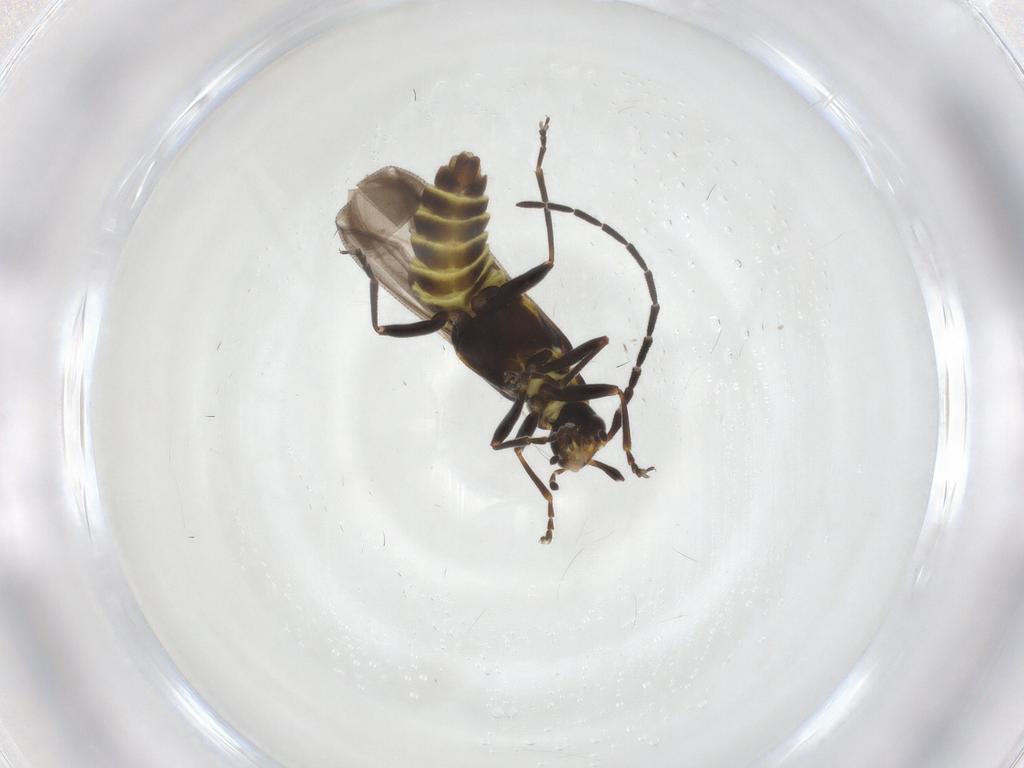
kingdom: Animalia
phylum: Arthropoda
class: Insecta
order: Coleoptera
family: Cantharidae
